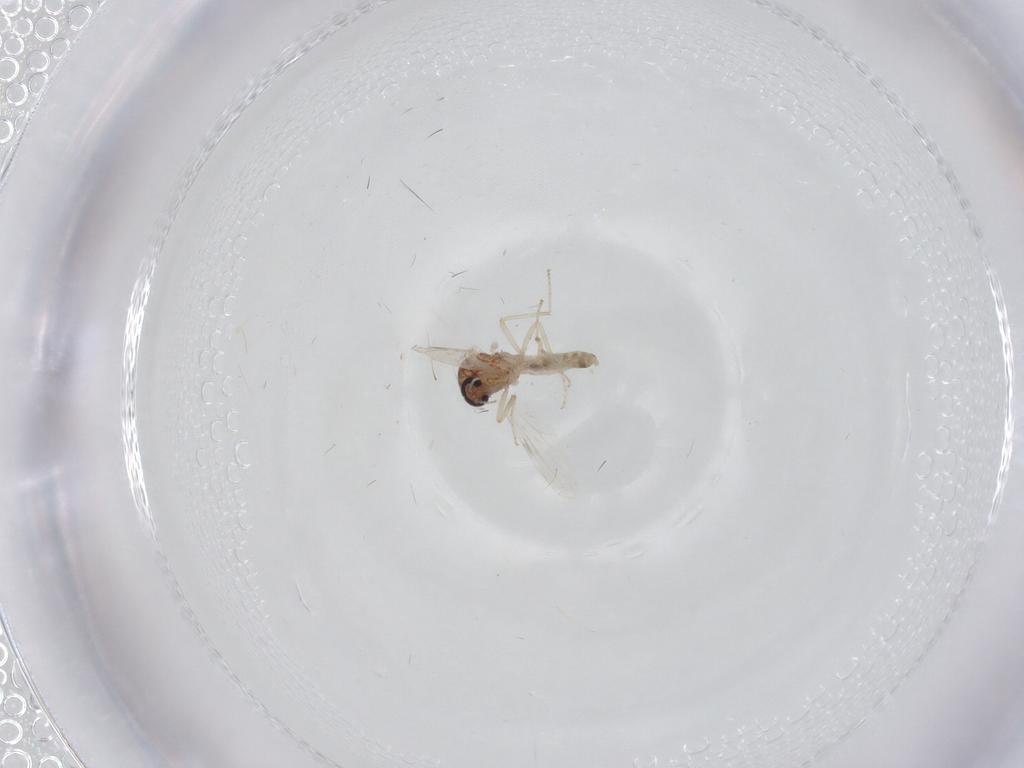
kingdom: Animalia
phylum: Arthropoda
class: Insecta
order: Diptera
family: Ceratopogonidae
